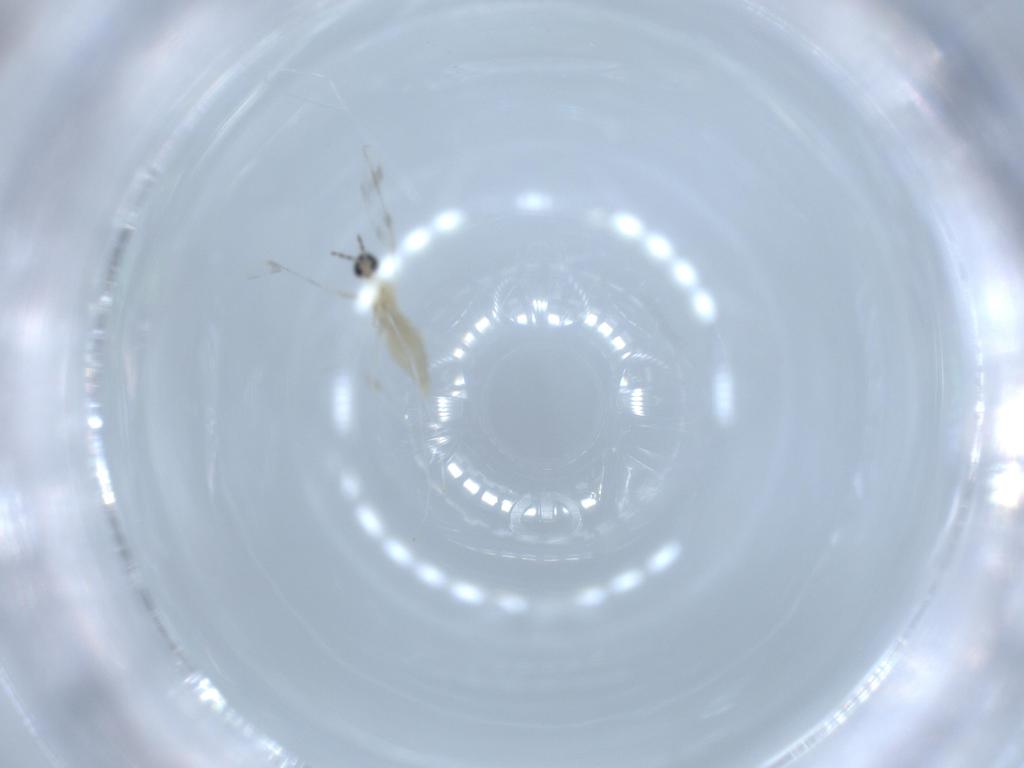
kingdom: Animalia
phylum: Arthropoda
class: Insecta
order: Diptera
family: Cecidomyiidae
